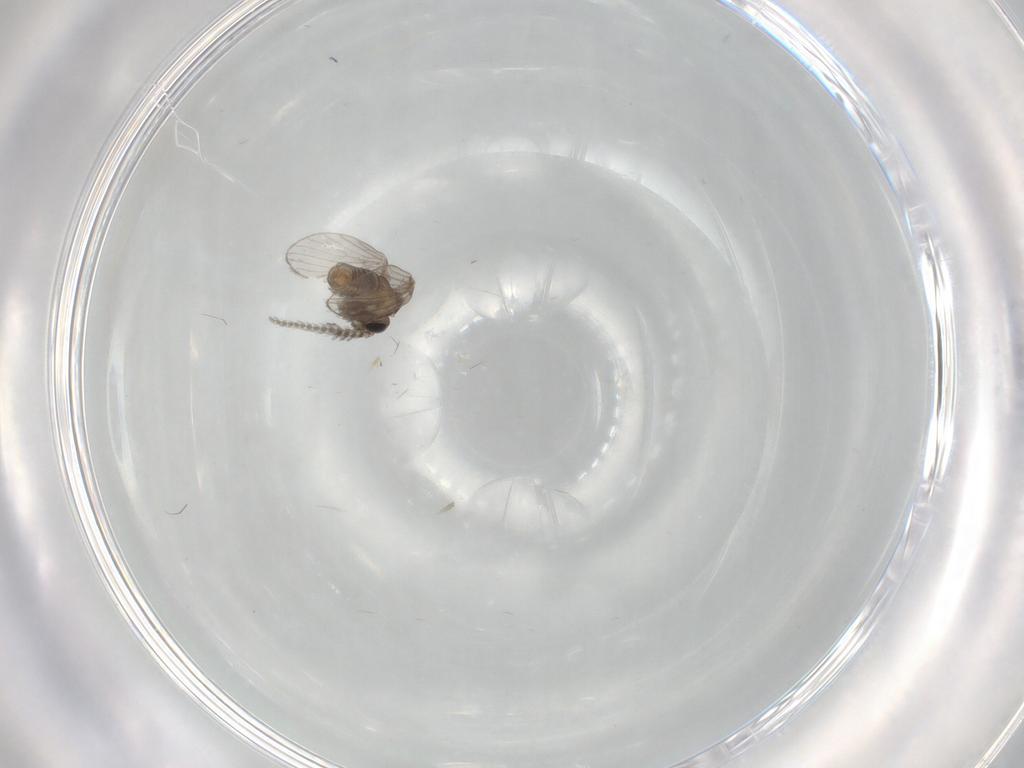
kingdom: Animalia
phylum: Arthropoda
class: Insecta
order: Diptera
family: Psychodidae
